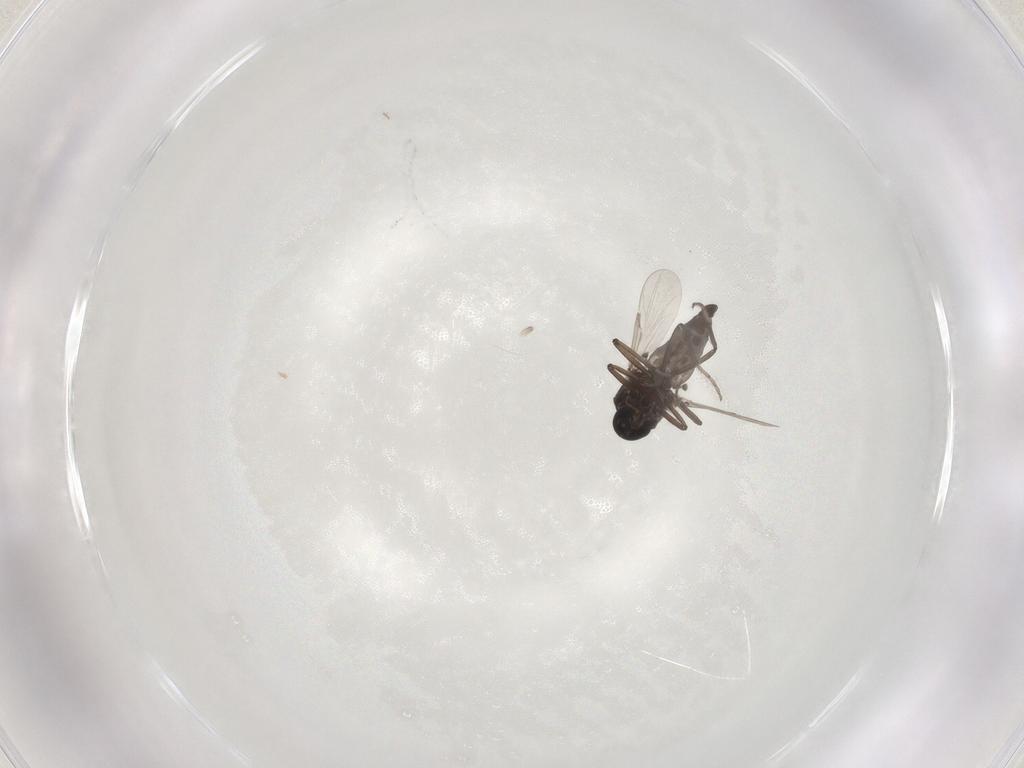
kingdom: Animalia
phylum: Arthropoda
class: Insecta
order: Diptera
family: Ceratopogonidae
